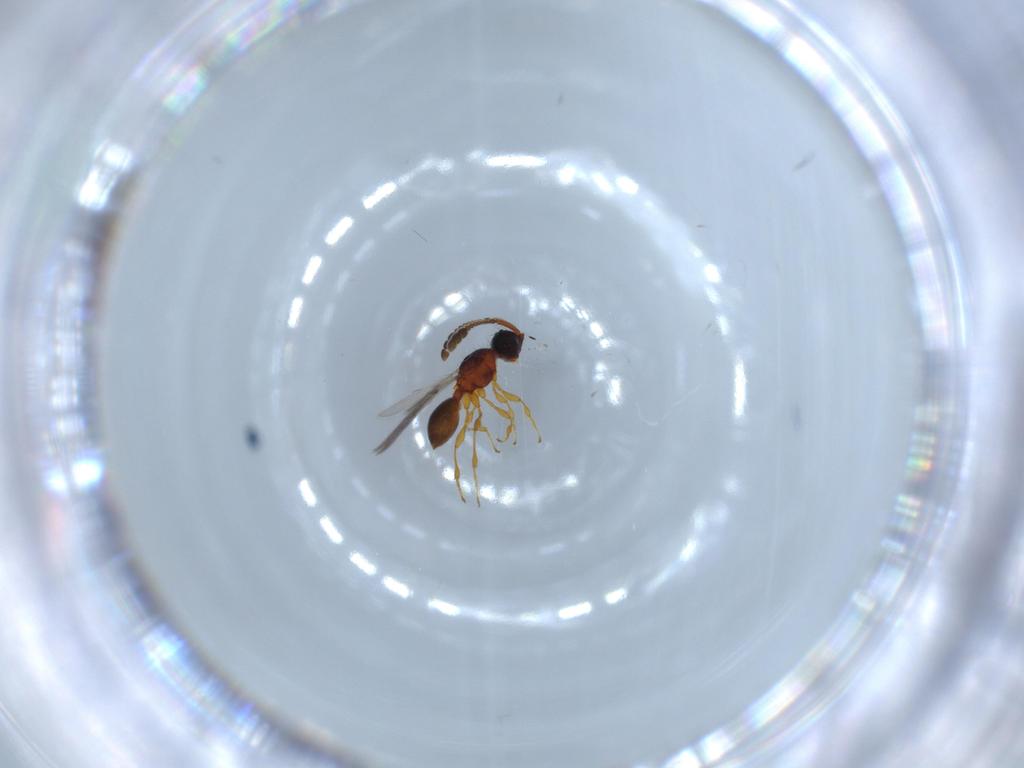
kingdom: Animalia
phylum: Arthropoda
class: Insecta
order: Hymenoptera
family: Diapriidae
